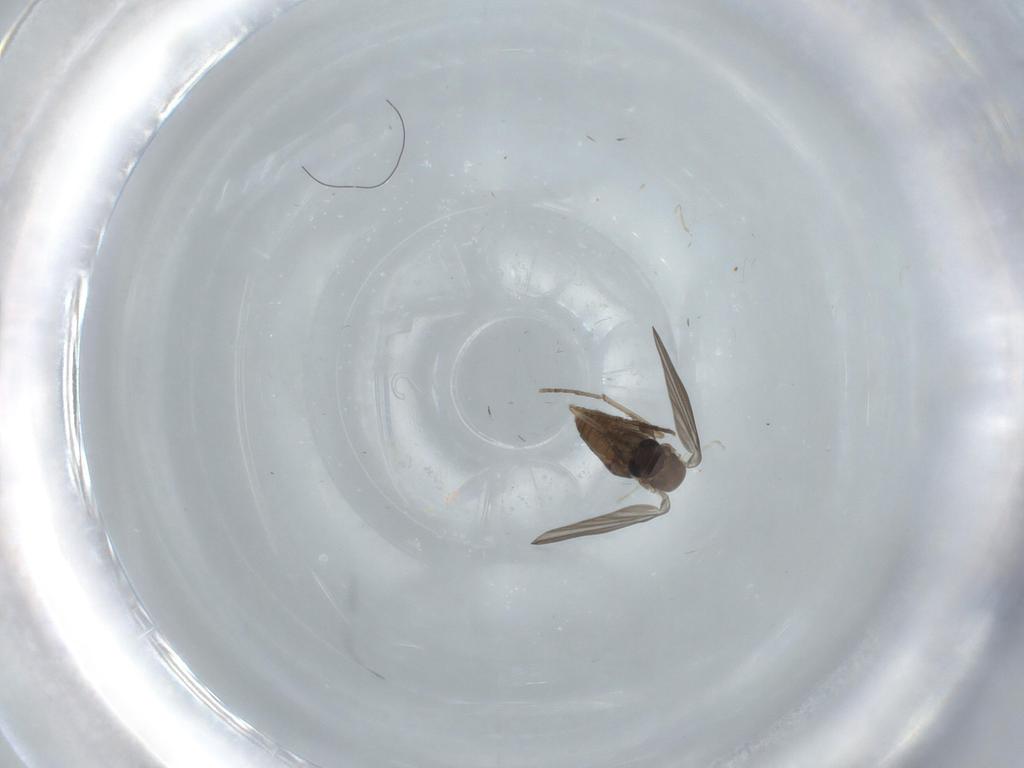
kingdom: Animalia
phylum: Arthropoda
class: Insecta
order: Diptera
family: Psychodidae
